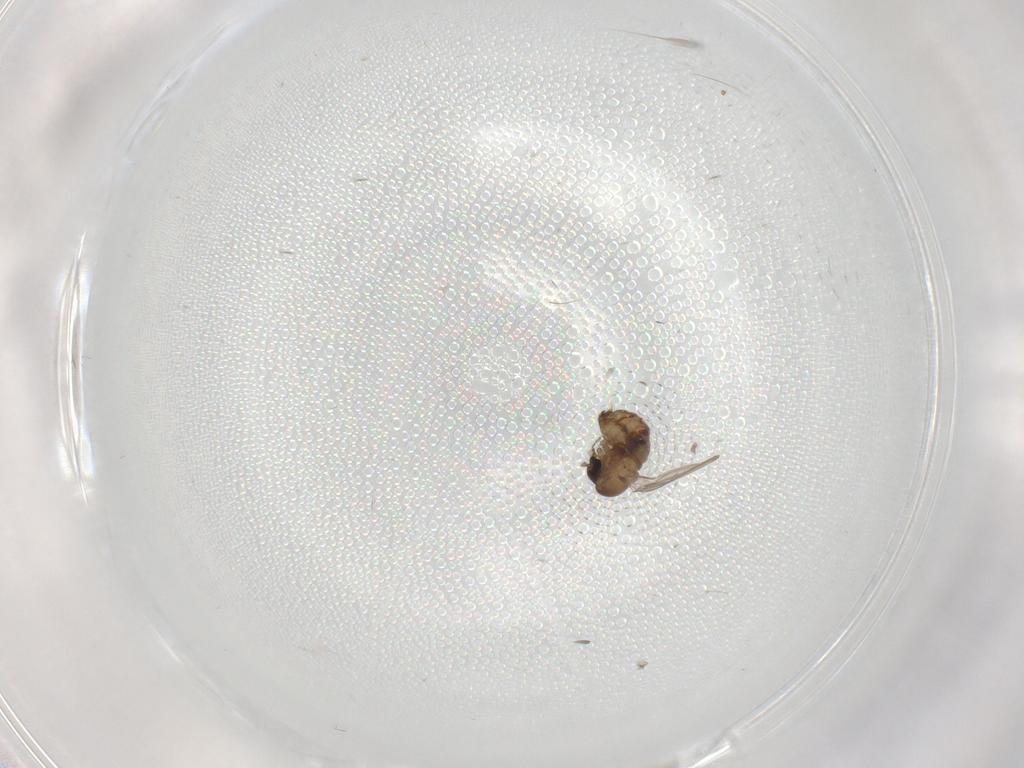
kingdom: Animalia
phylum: Arthropoda
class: Insecta
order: Diptera
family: Psychodidae
